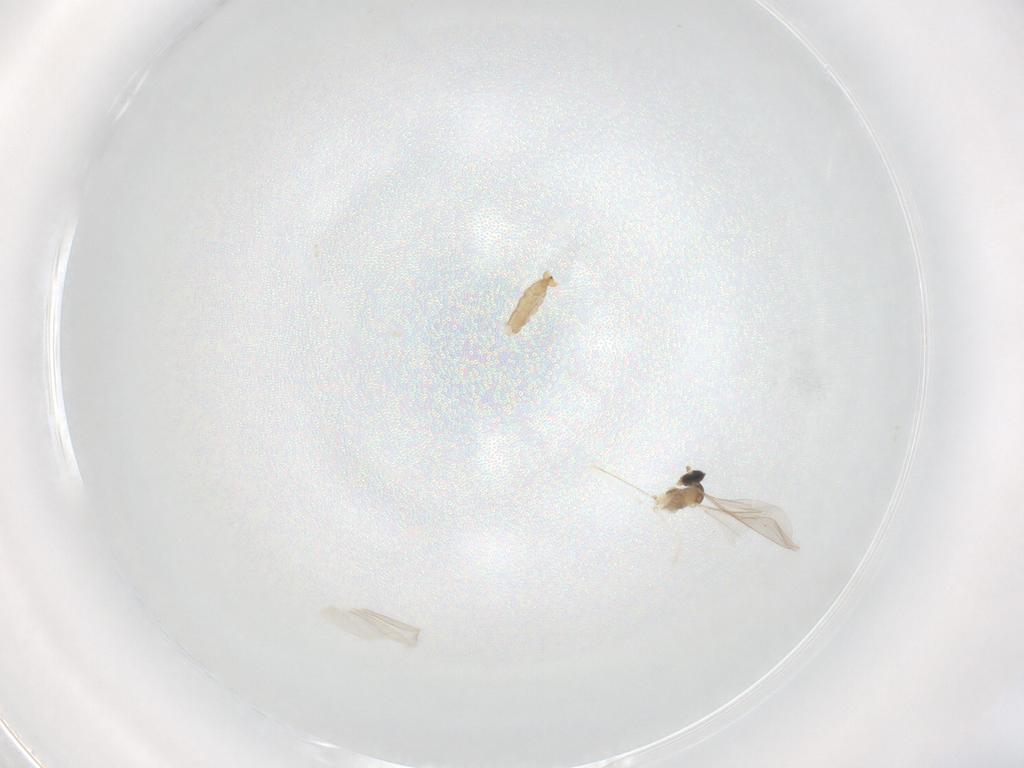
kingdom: Animalia
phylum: Arthropoda
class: Insecta
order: Diptera
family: Cecidomyiidae
